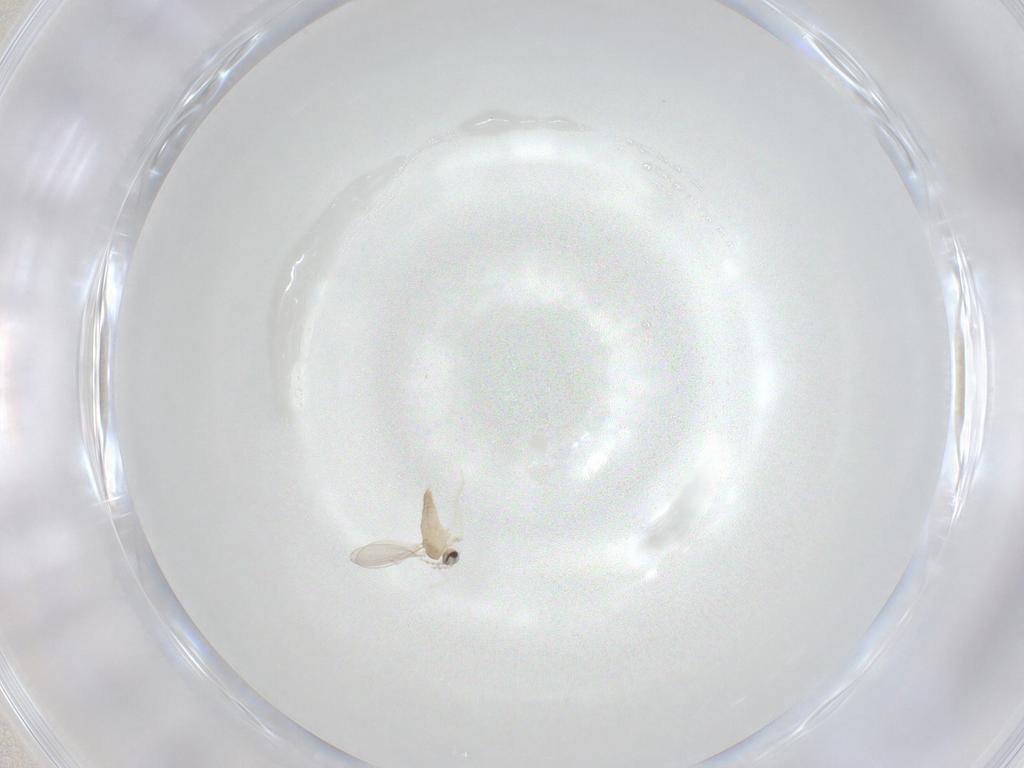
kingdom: Animalia
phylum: Arthropoda
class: Insecta
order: Diptera
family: Cecidomyiidae
